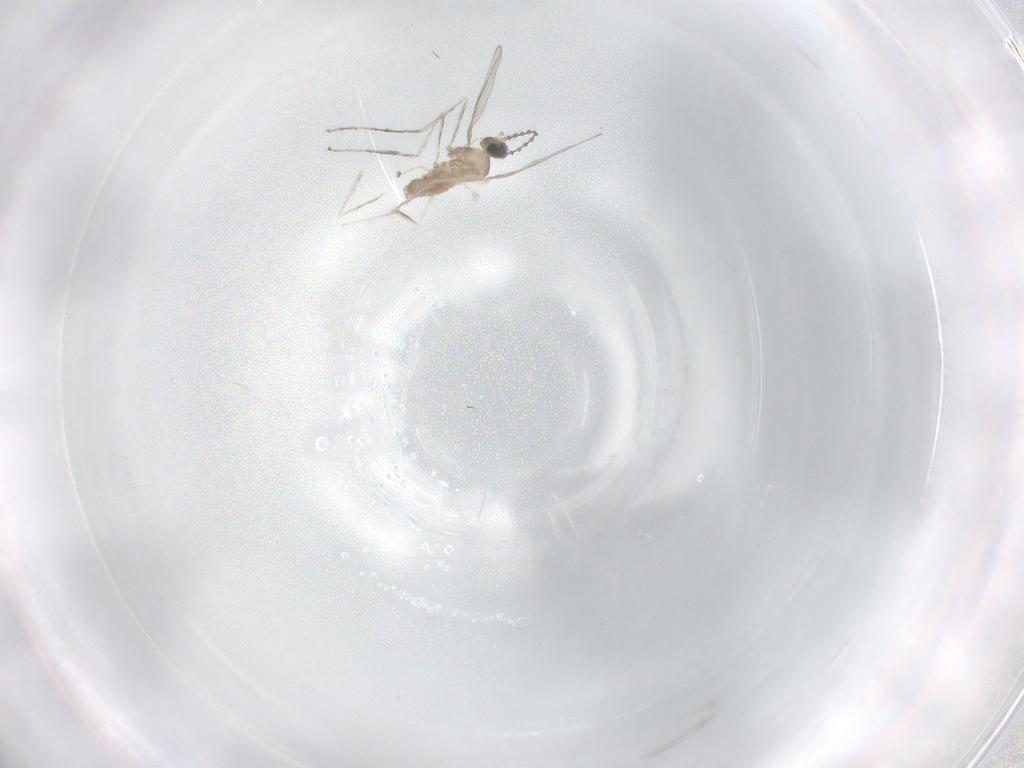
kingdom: Animalia
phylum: Arthropoda
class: Insecta
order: Diptera
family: Cecidomyiidae
